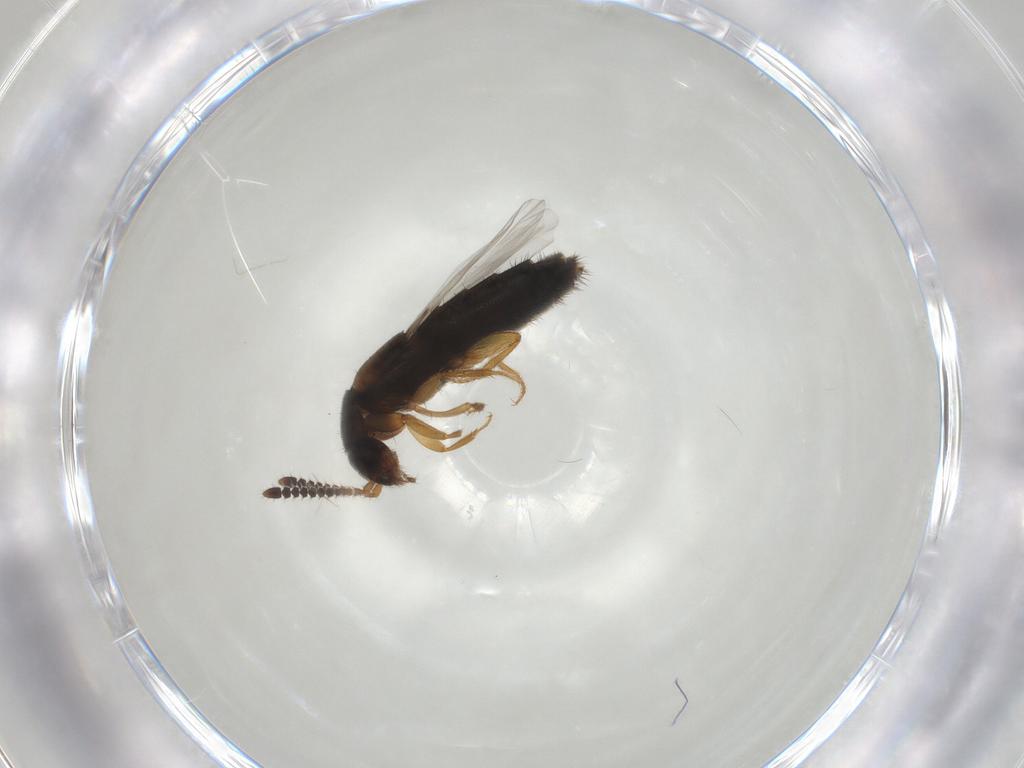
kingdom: Animalia
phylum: Arthropoda
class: Insecta
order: Coleoptera
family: Staphylinidae
